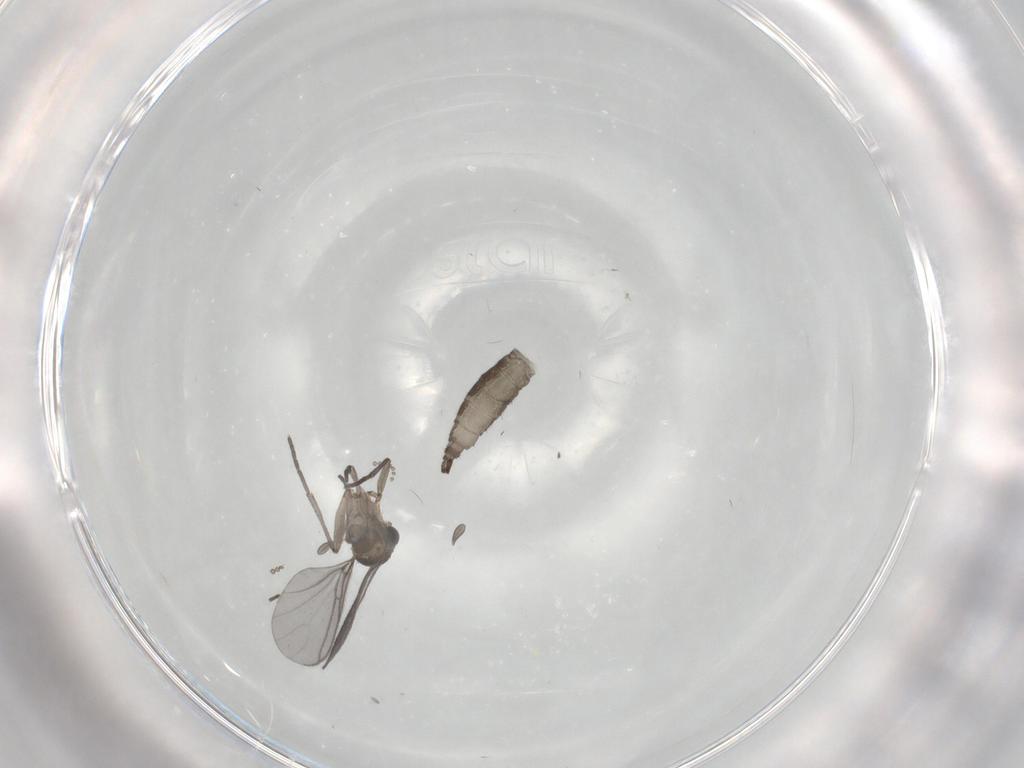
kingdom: Animalia
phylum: Arthropoda
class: Insecta
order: Diptera
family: Psychodidae
